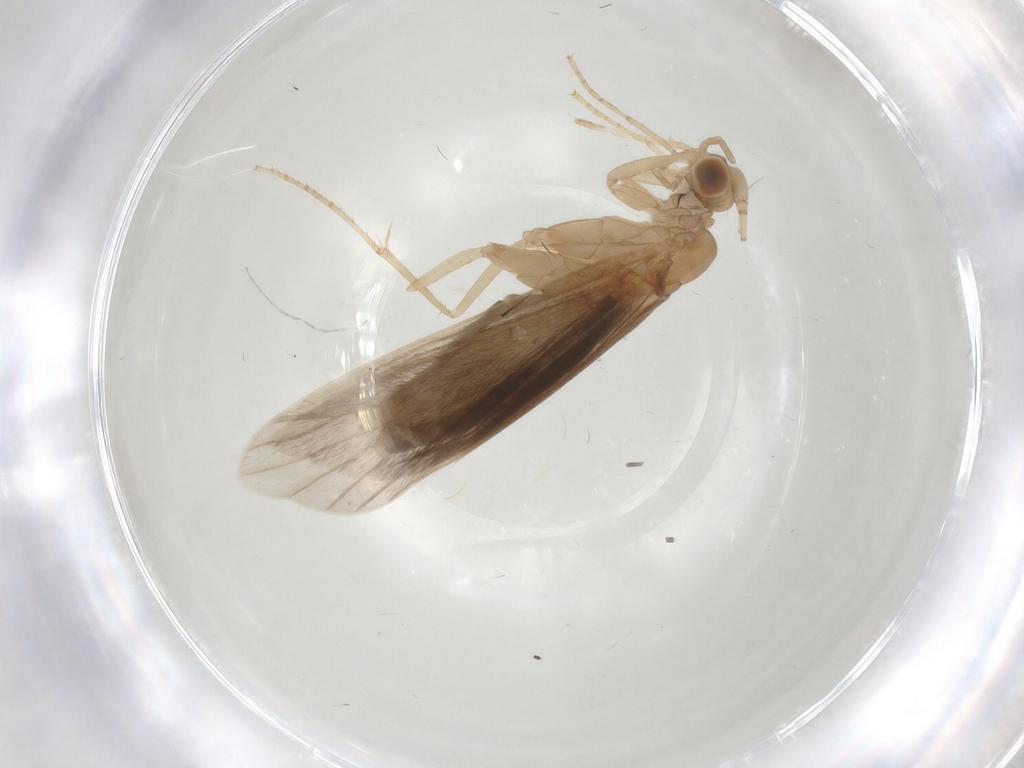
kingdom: Animalia
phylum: Arthropoda
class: Insecta
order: Trichoptera
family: Leptoceridae
